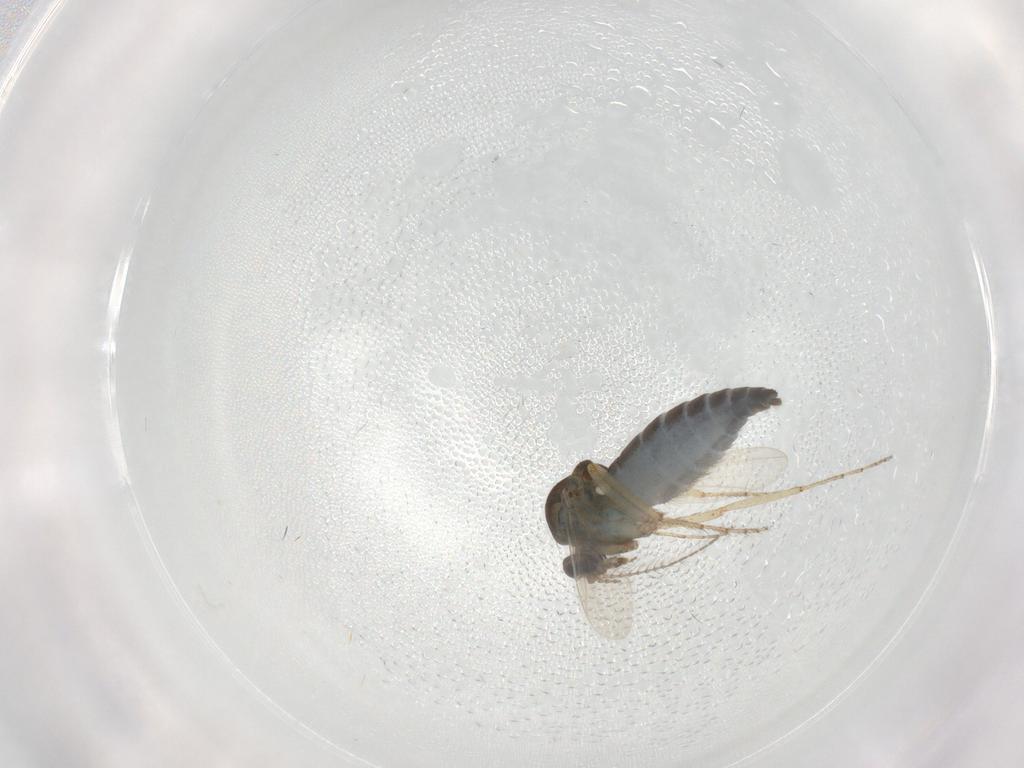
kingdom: Animalia
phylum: Arthropoda
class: Insecta
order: Diptera
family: Ceratopogonidae
